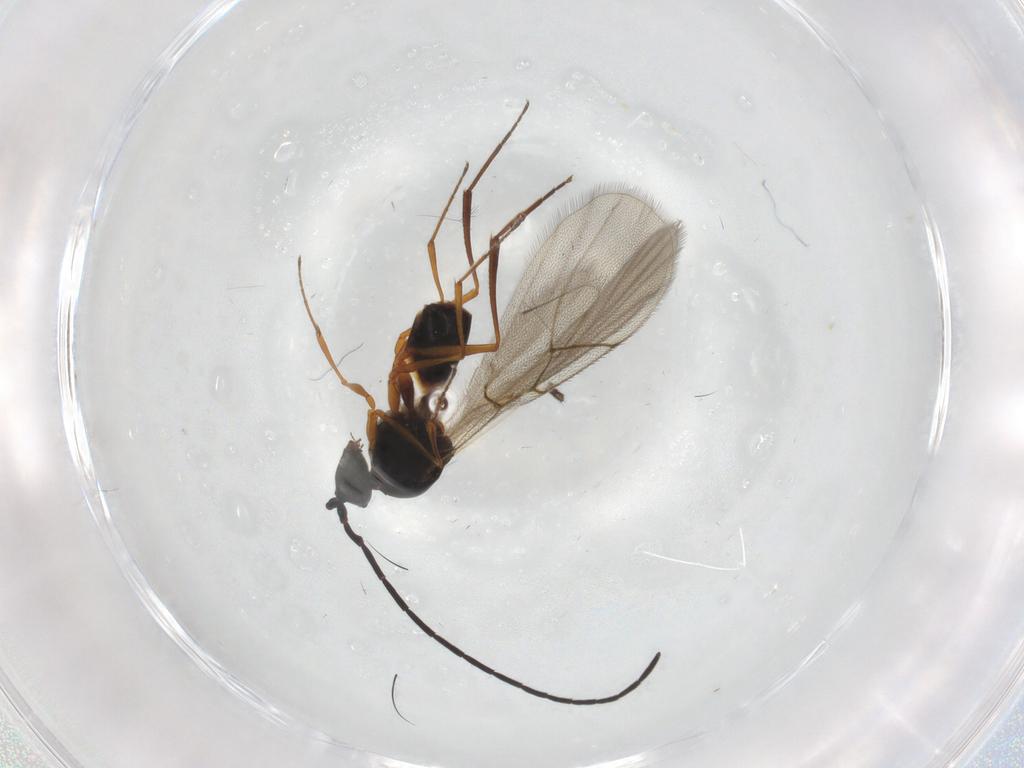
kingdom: Animalia
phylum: Arthropoda
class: Insecta
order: Hymenoptera
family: Figitidae
